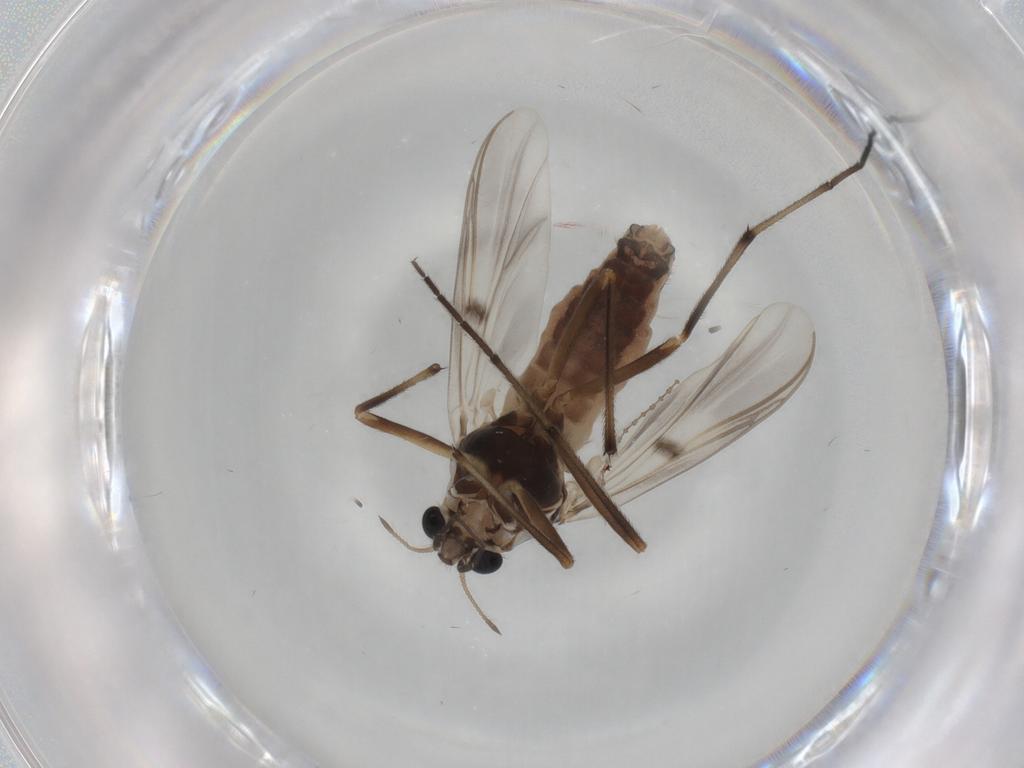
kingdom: Animalia
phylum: Arthropoda
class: Insecta
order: Diptera
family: Chironomidae
